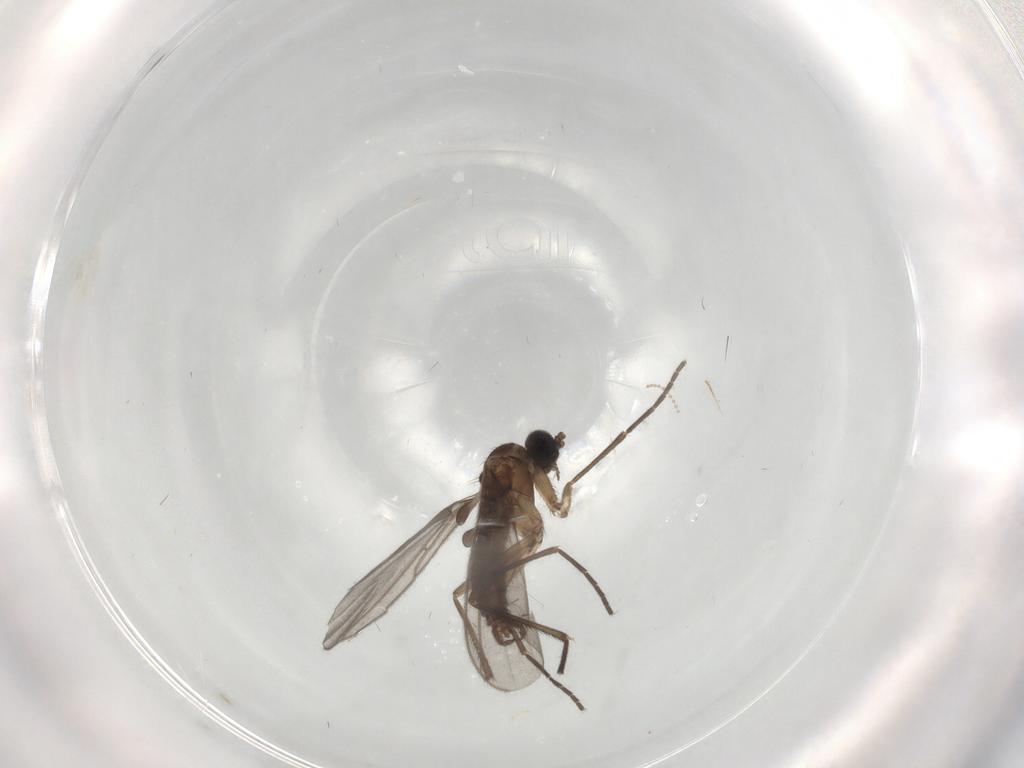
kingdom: Animalia
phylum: Arthropoda
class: Insecta
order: Diptera
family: Sciaridae
